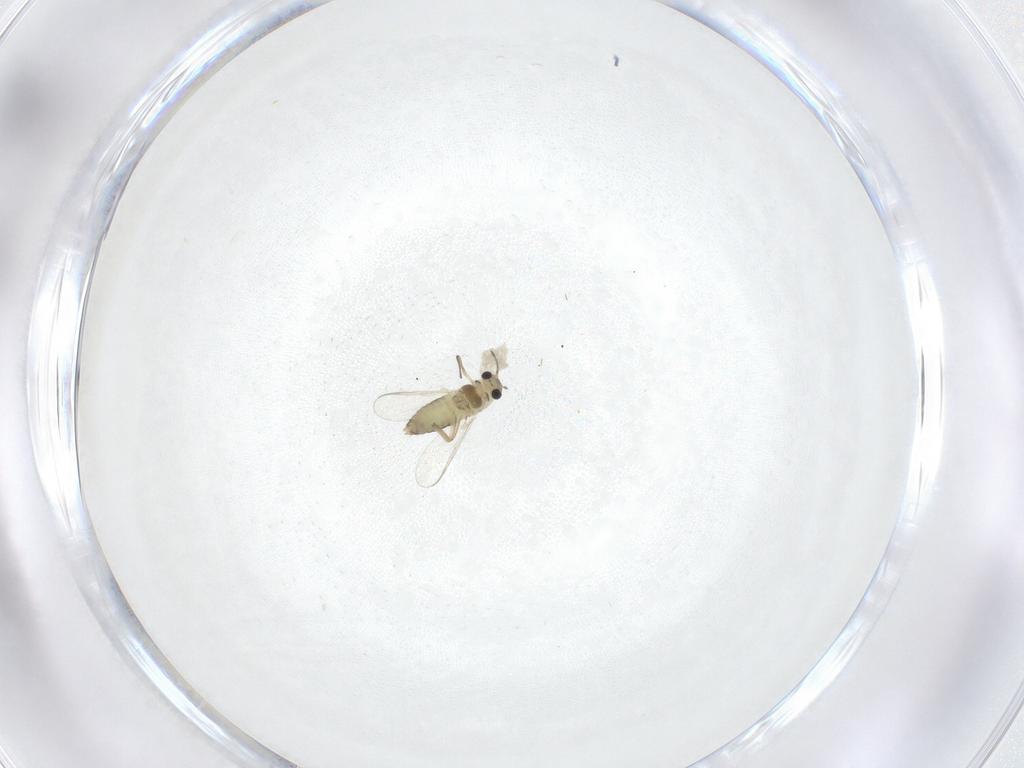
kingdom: Animalia
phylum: Arthropoda
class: Insecta
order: Diptera
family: Chironomidae
